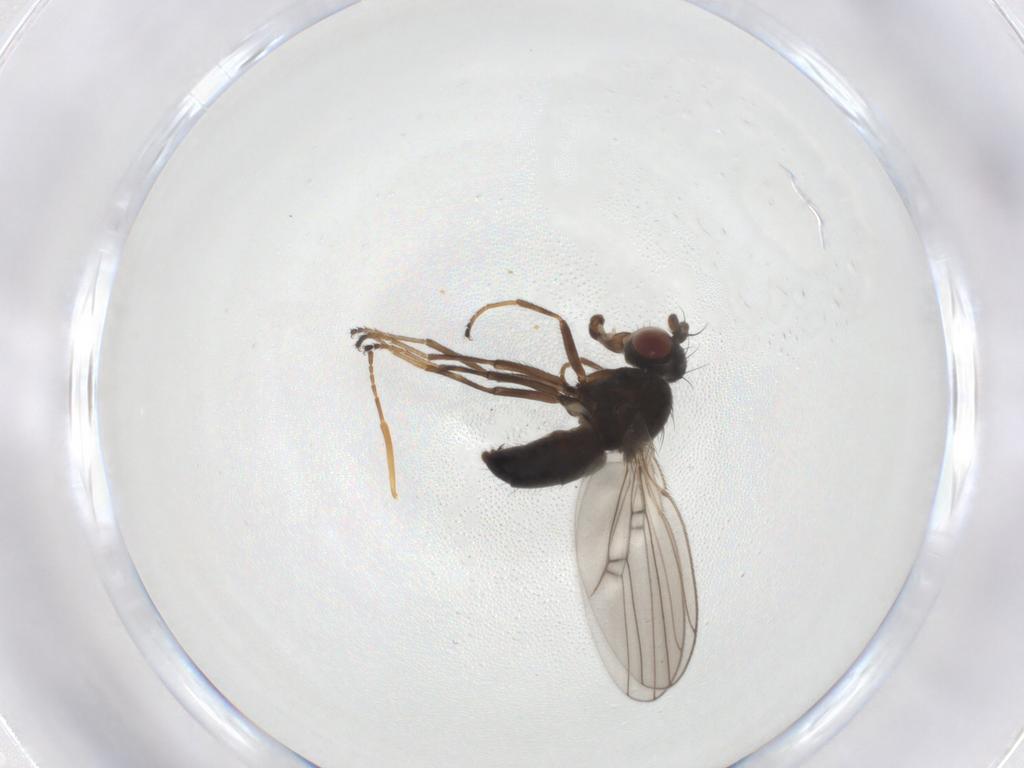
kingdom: Animalia
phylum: Arthropoda
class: Insecta
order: Diptera
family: Ephydridae
